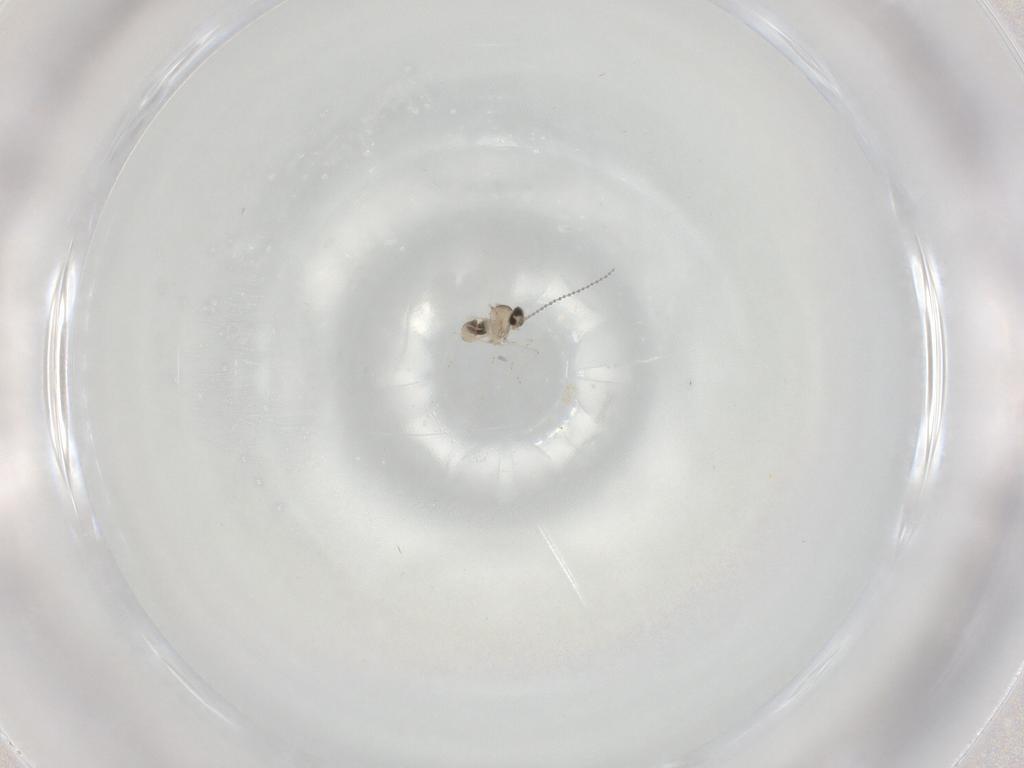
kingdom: Animalia
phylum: Arthropoda
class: Insecta
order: Diptera
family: Cecidomyiidae
